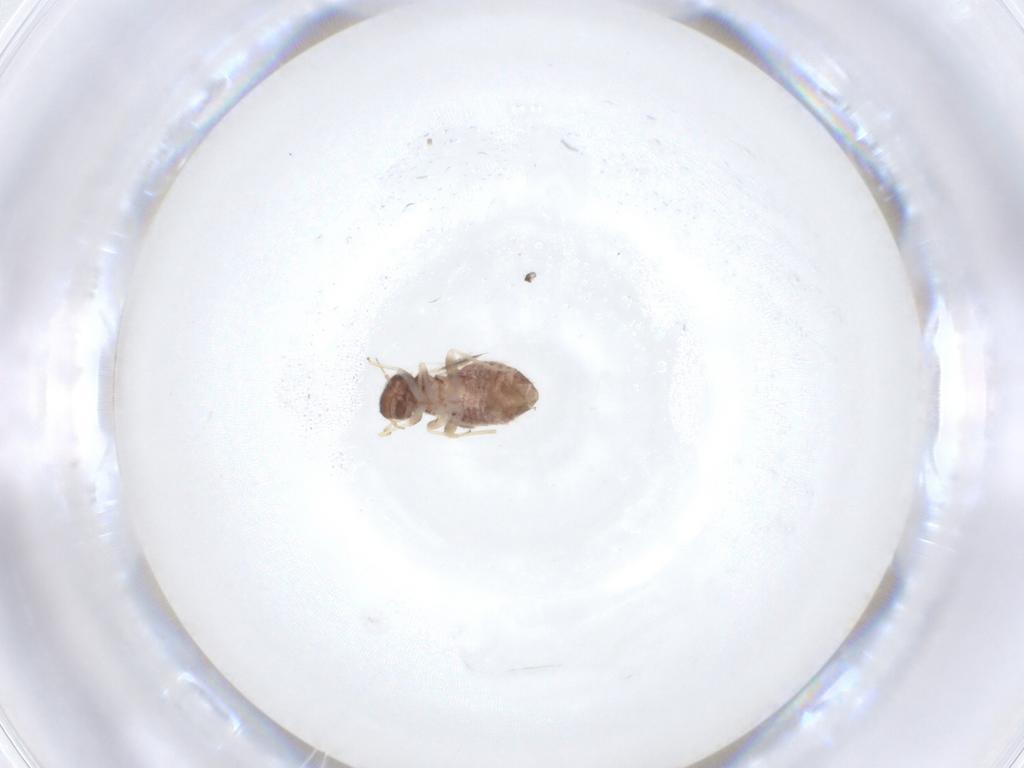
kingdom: Animalia
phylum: Arthropoda
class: Insecta
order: Psocodea
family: Archipsocidae
